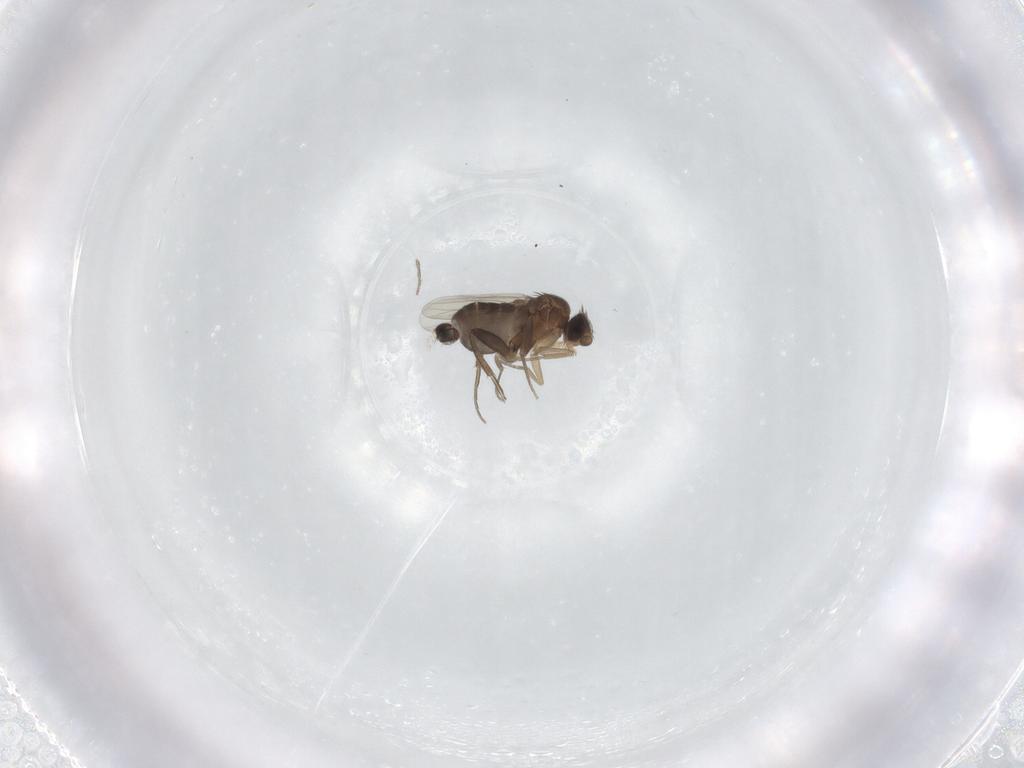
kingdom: Animalia
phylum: Arthropoda
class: Insecta
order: Diptera
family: Phoridae
